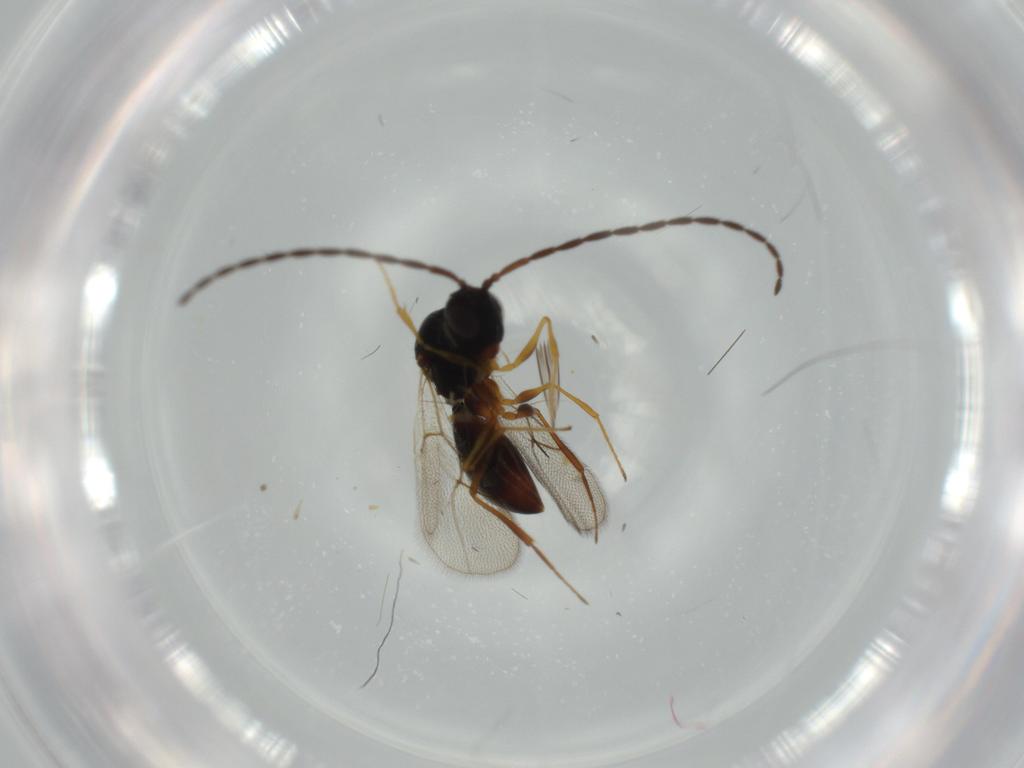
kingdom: Animalia
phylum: Arthropoda
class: Insecta
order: Hymenoptera
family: Figitidae
